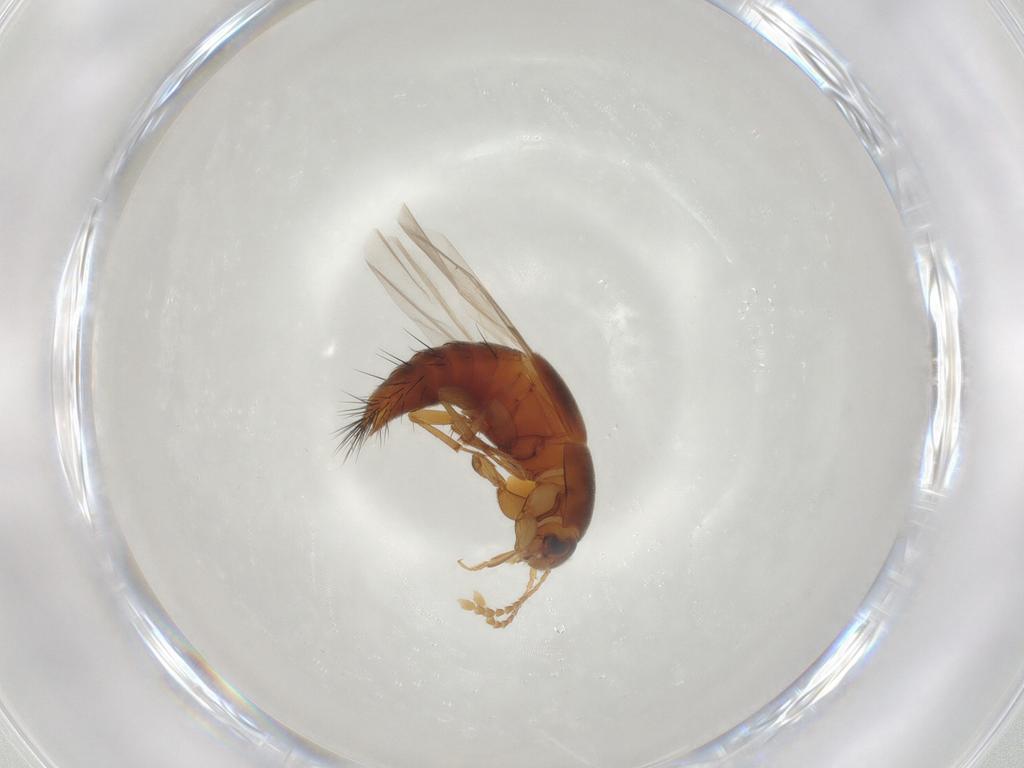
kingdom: Animalia
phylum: Arthropoda
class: Insecta
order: Coleoptera
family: Staphylinidae
